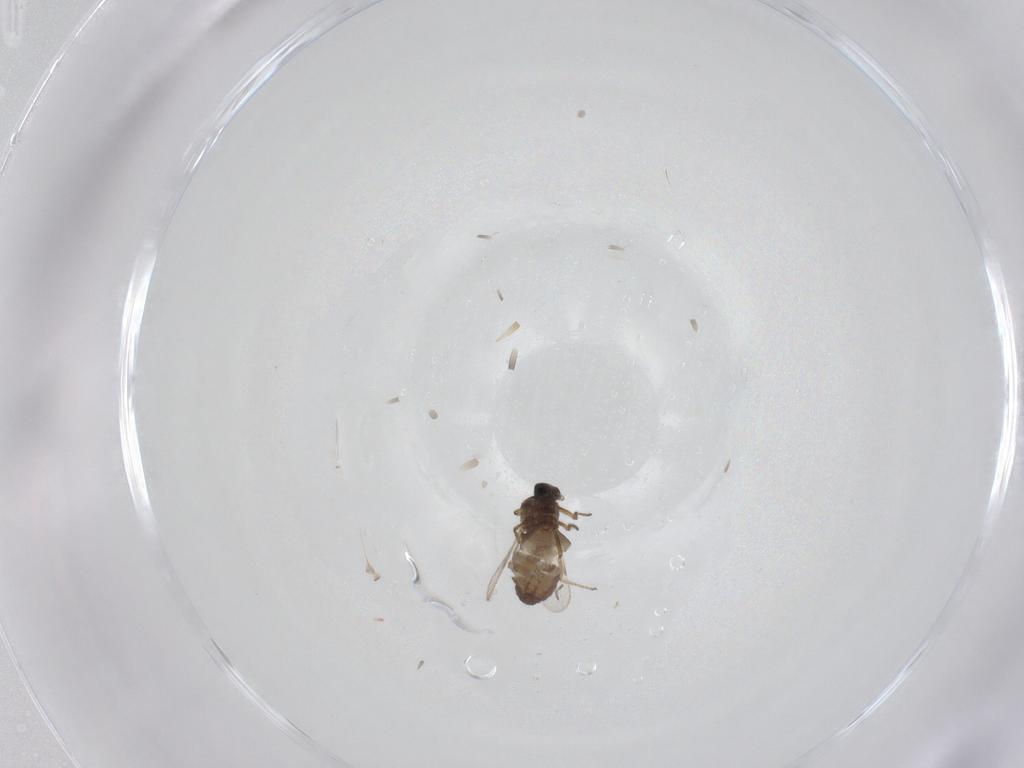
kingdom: Animalia
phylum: Arthropoda
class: Insecta
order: Diptera
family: Ceratopogonidae
